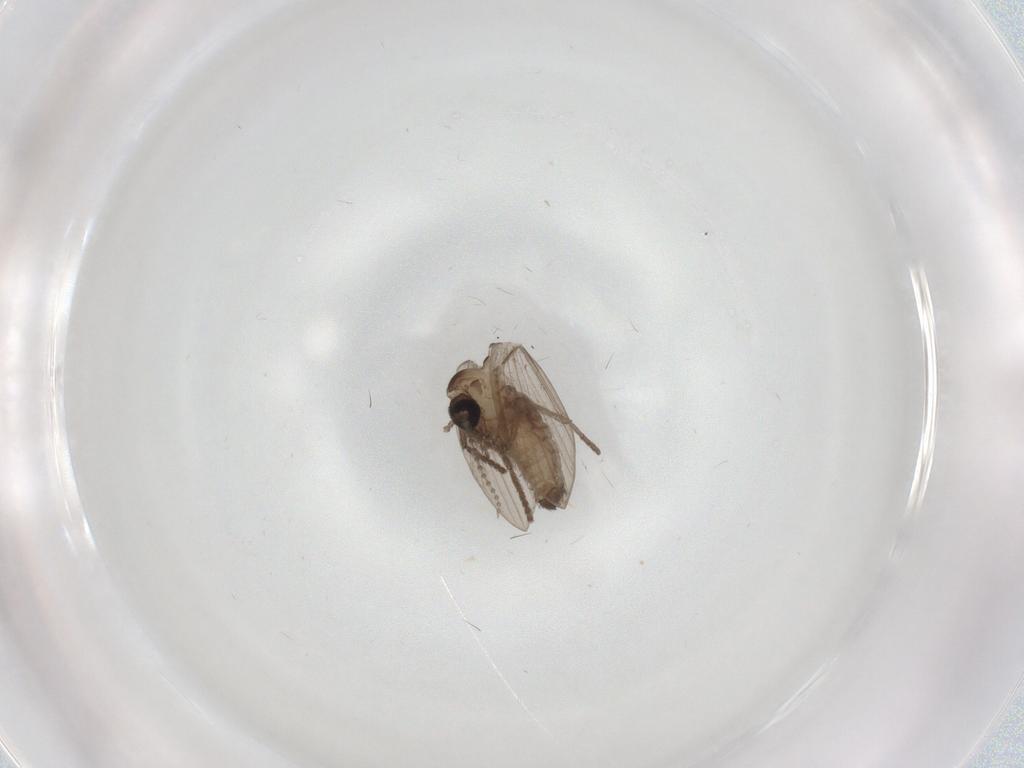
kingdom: Animalia
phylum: Arthropoda
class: Insecta
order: Diptera
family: Psychodidae
